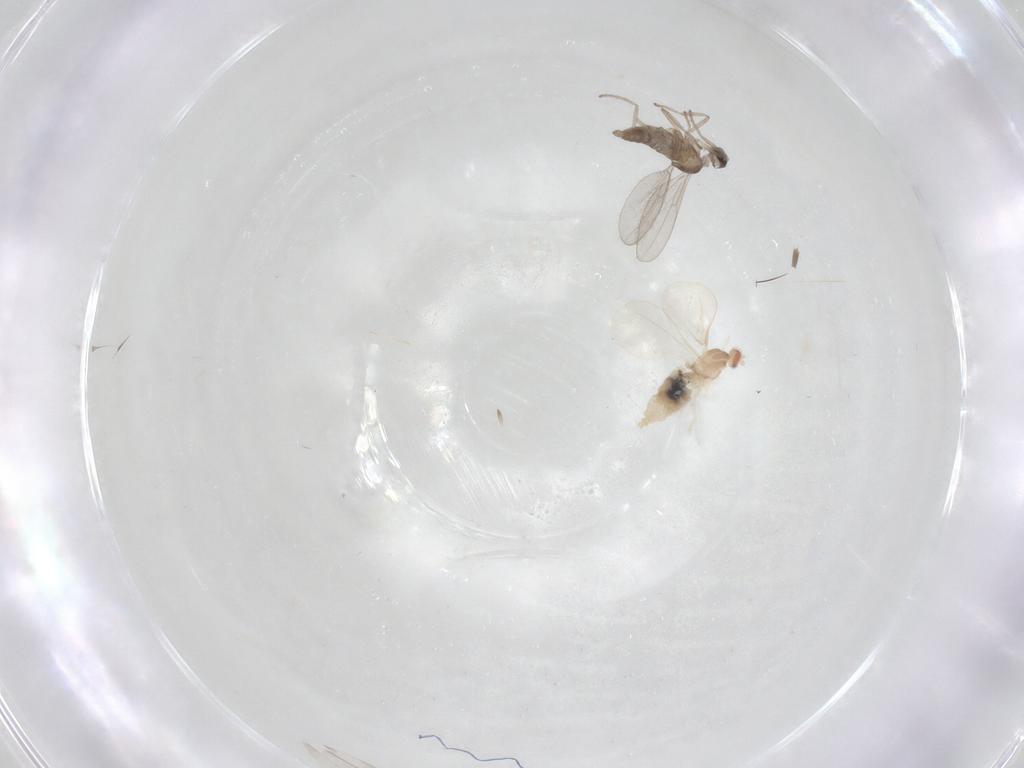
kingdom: Animalia
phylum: Arthropoda
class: Insecta
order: Diptera
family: Cecidomyiidae
